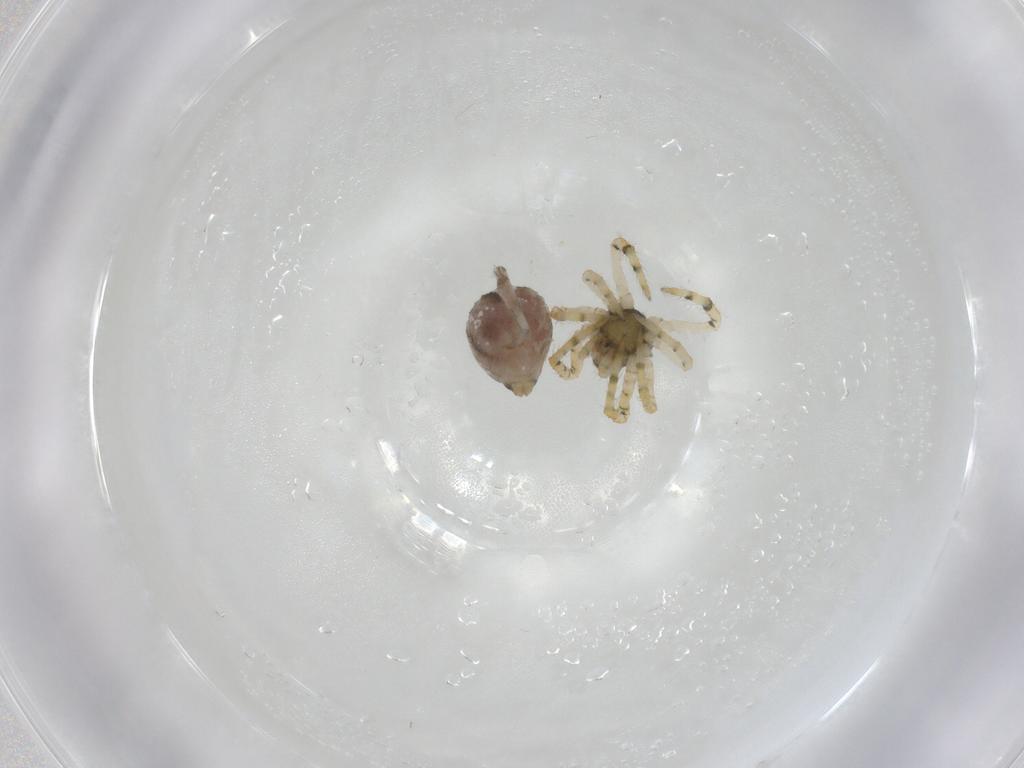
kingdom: Animalia
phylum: Arthropoda
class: Arachnida
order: Araneae
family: Theridiidae
